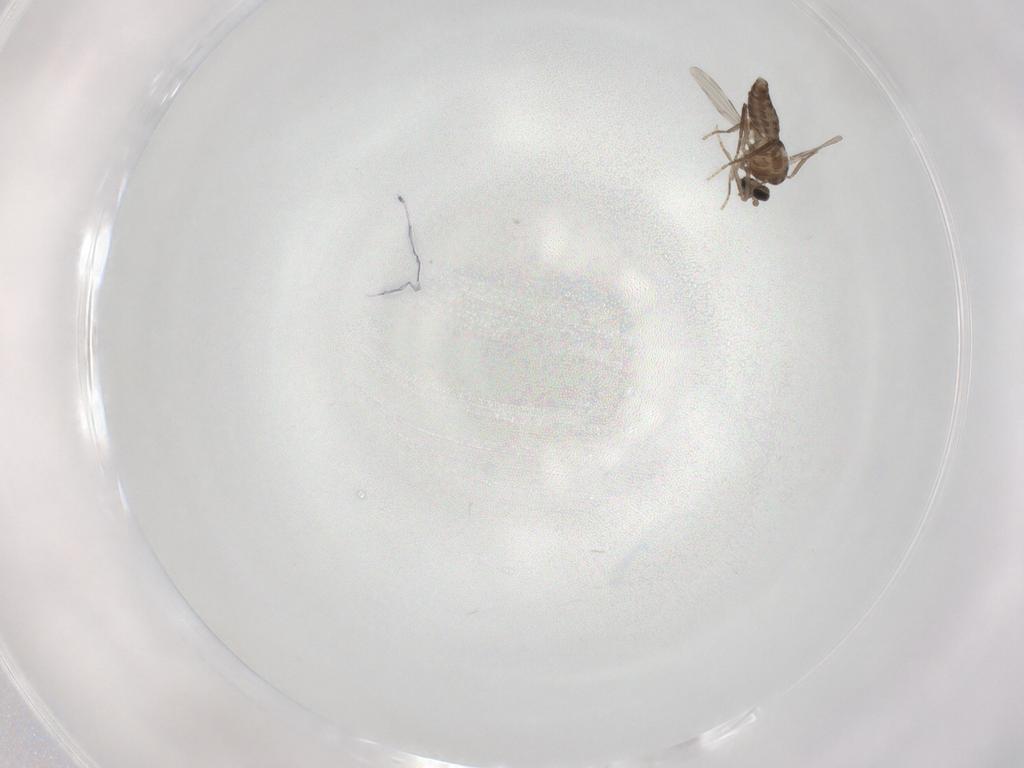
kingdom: Animalia
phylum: Arthropoda
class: Insecta
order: Diptera
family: Ceratopogonidae
